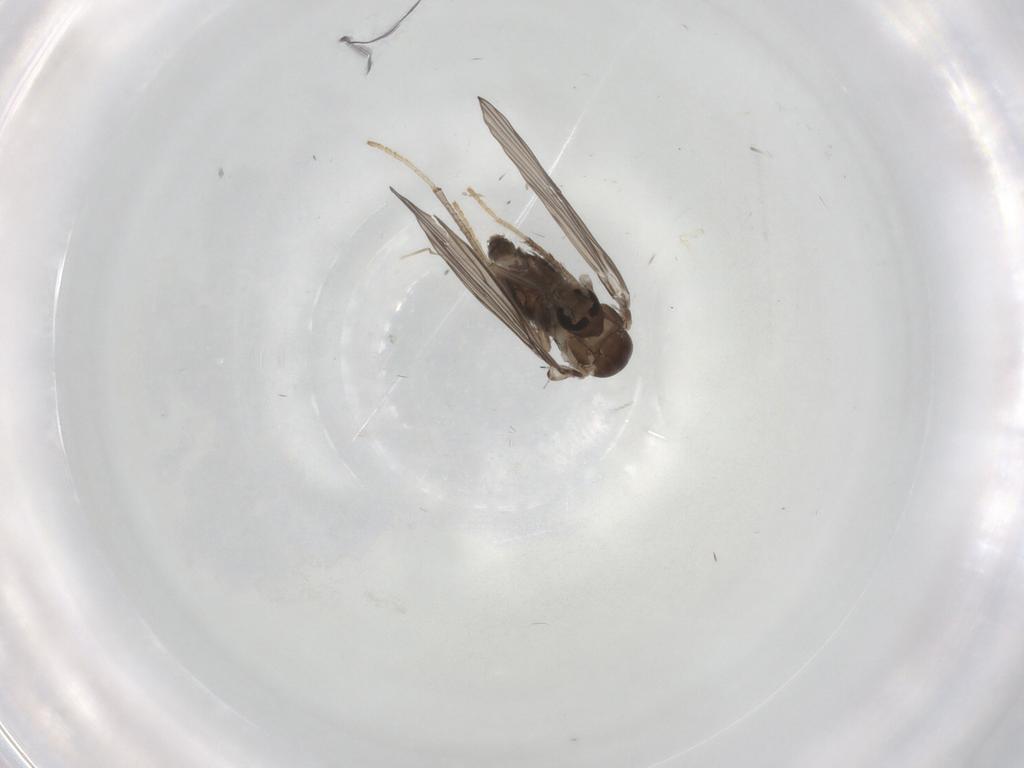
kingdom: Animalia
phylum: Arthropoda
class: Insecta
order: Diptera
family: Psychodidae
